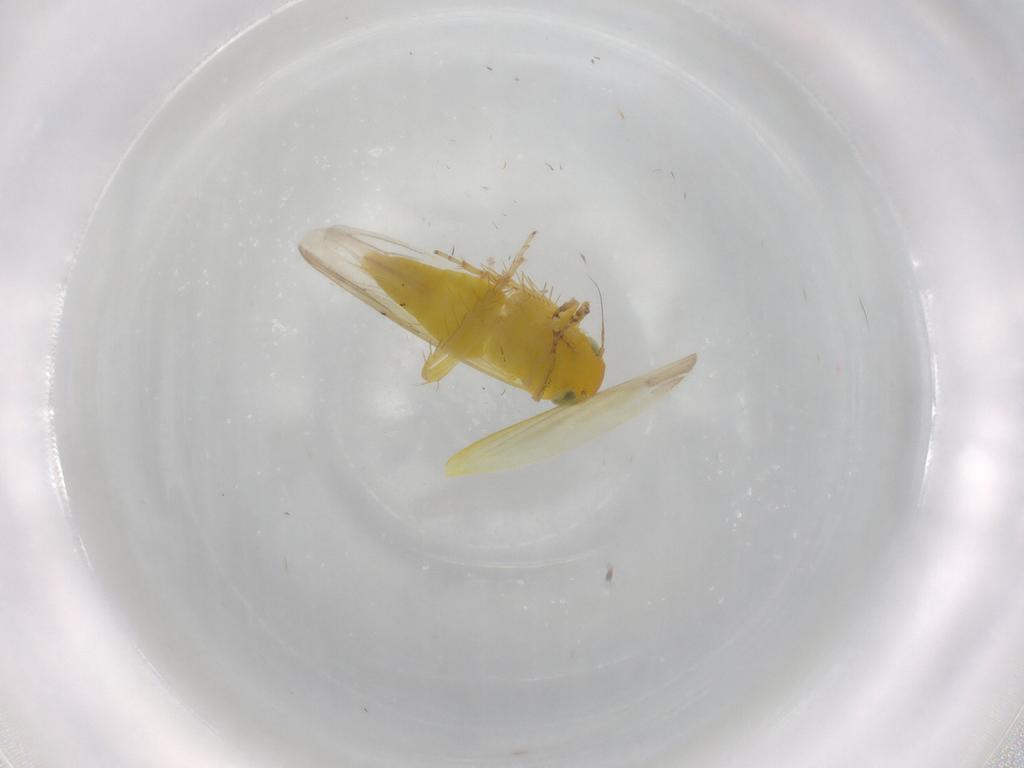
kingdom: Animalia
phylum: Arthropoda
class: Insecta
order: Hemiptera
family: Cicadellidae
